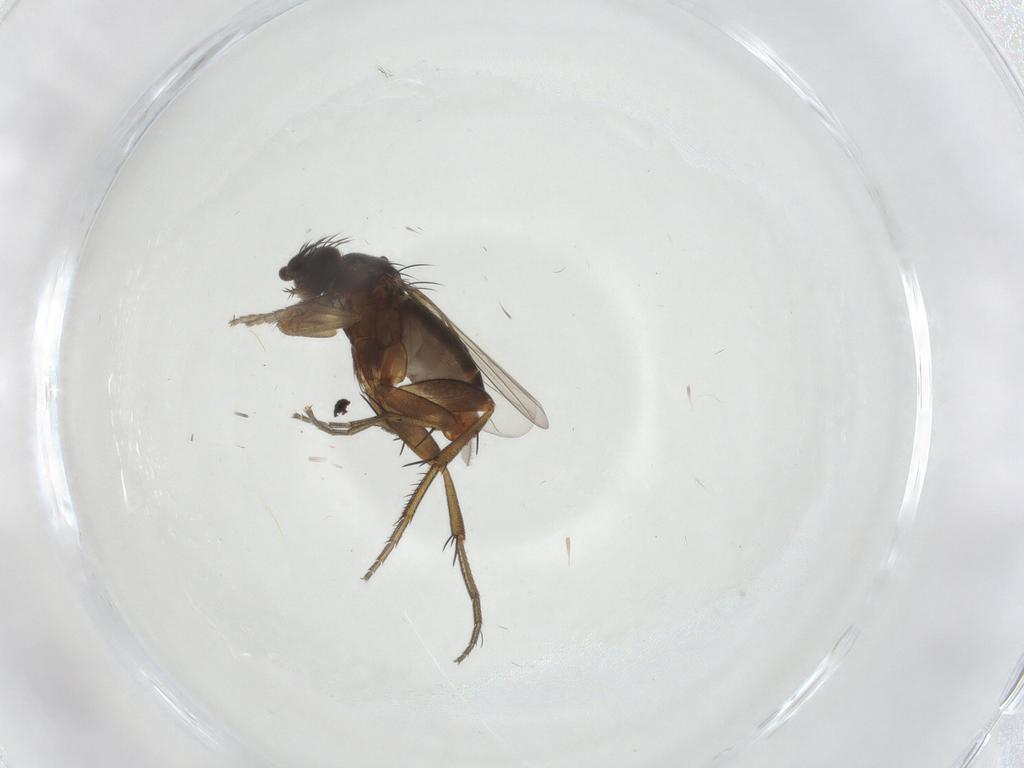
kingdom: Animalia
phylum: Arthropoda
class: Insecta
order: Diptera
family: Phoridae
